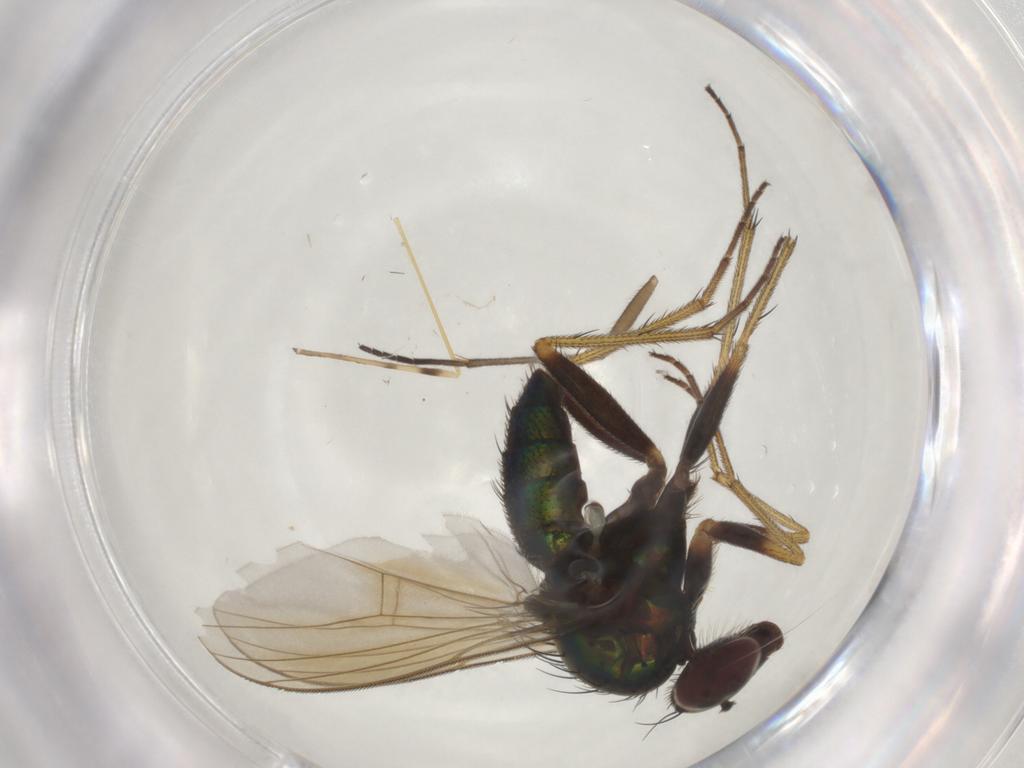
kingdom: Animalia
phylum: Arthropoda
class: Insecta
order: Diptera
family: Dolichopodidae
